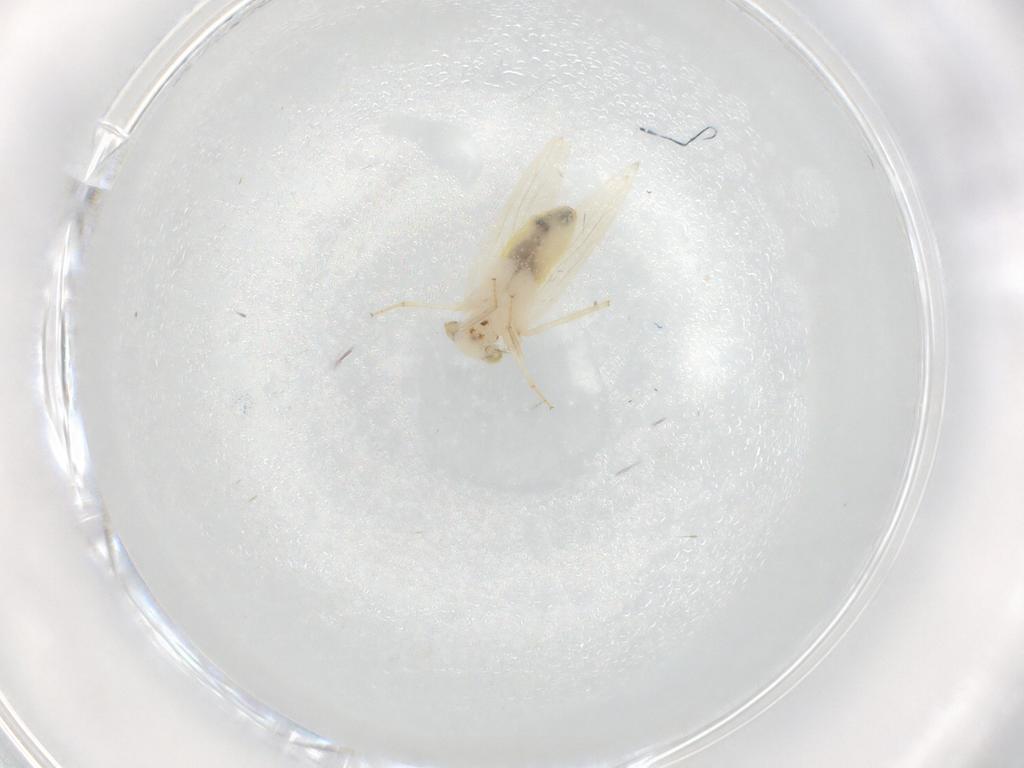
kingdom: Animalia
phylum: Arthropoda
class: Insecta
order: Psocodea
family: Lepidopsocidae
